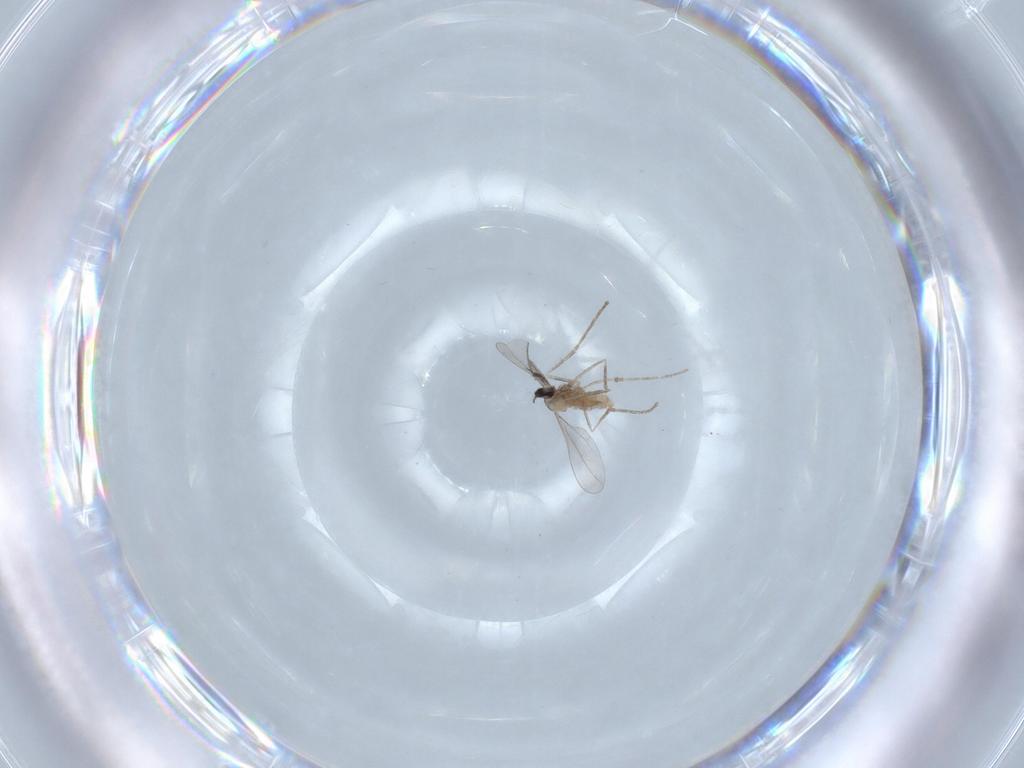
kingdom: Animalia
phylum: Arthropoda
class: Insecta
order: Diptera
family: Cecidomyiidae
